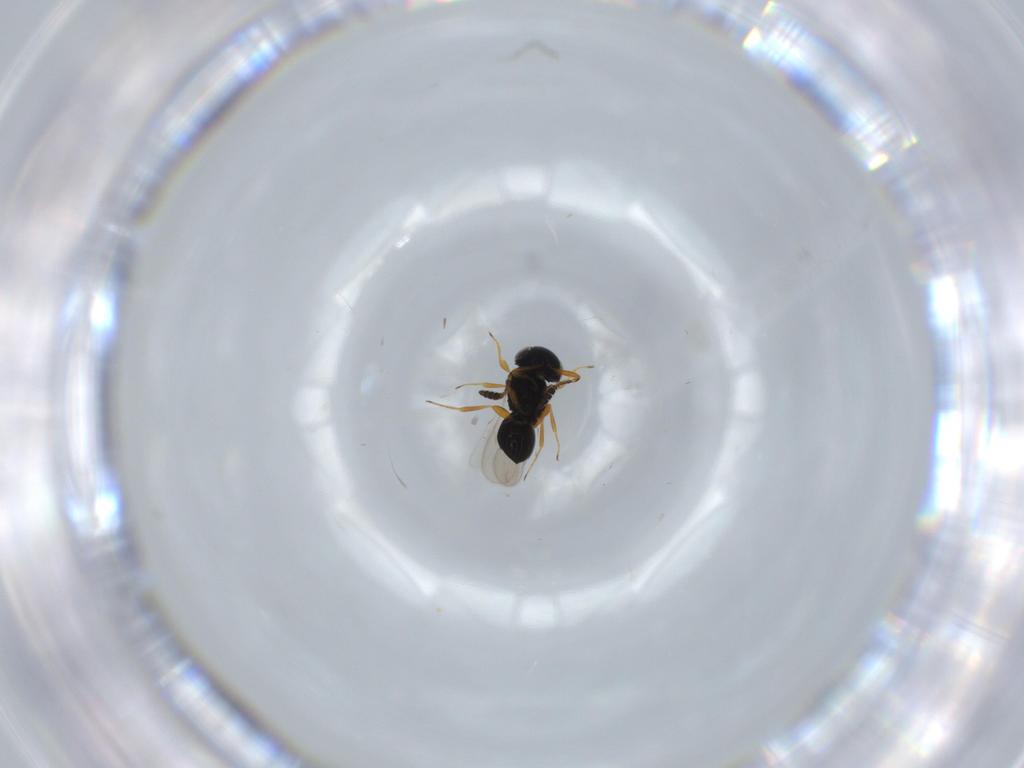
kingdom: Animalia
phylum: Arthropoda
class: Insecta
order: Hymenoptera
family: Scelionidae
